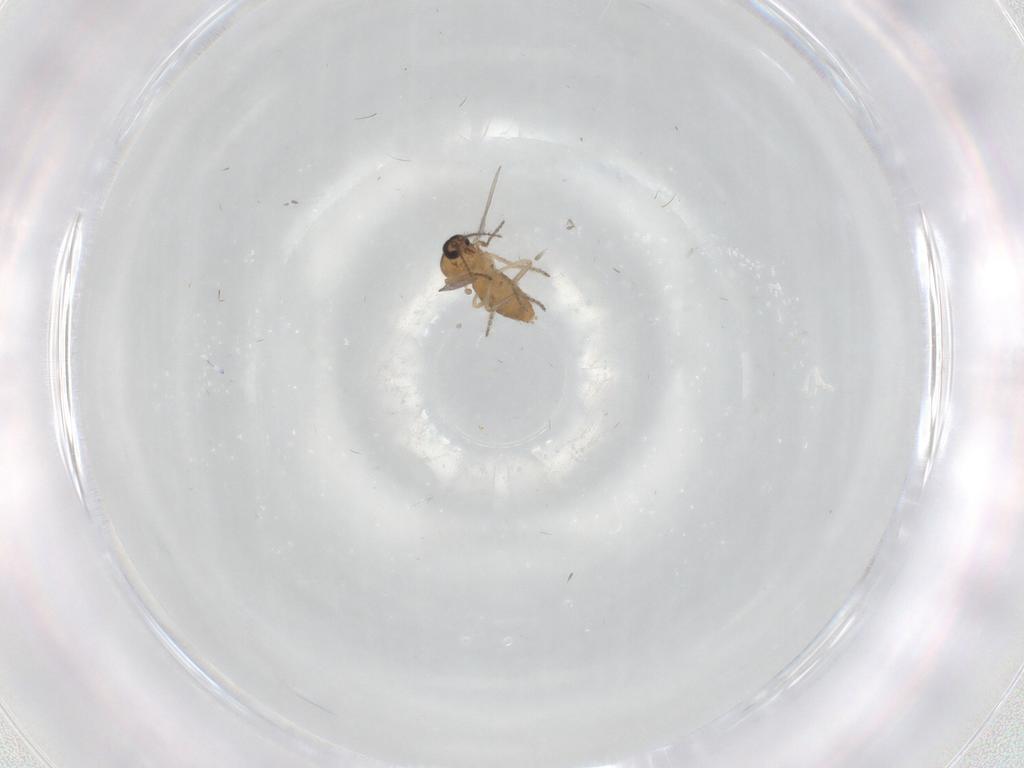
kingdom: Animalia
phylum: Arthropoda
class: Insecta
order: Diptera
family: Ceratopogonidae
